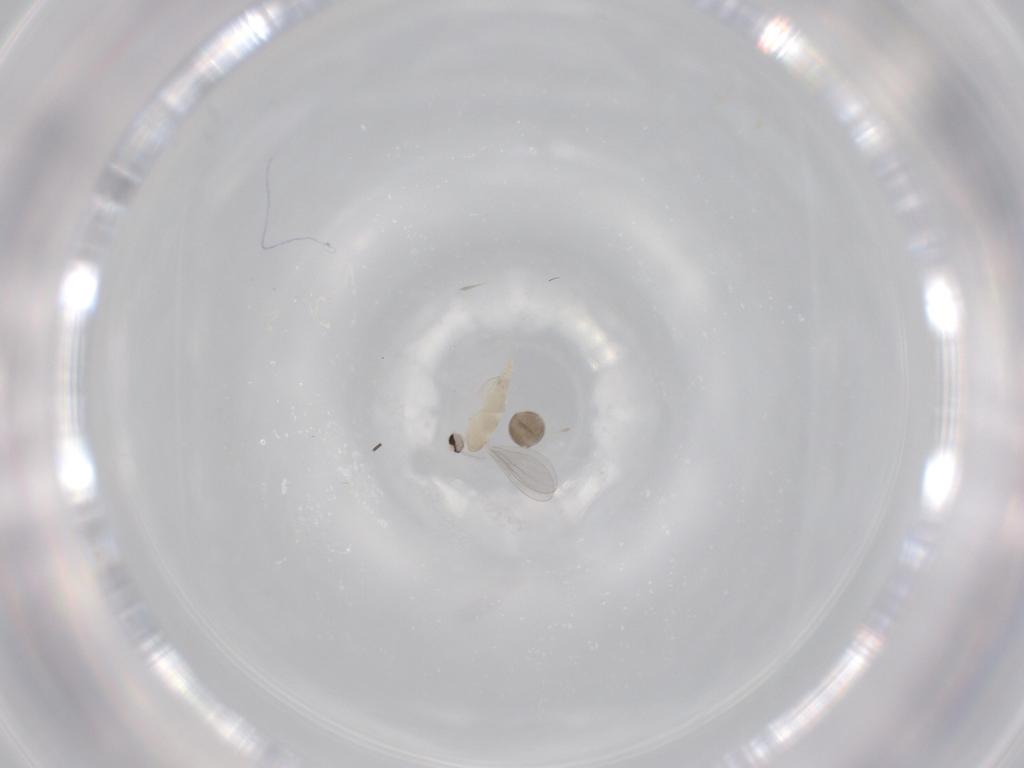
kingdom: Animalia
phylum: Arthropoda
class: Insecta
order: Diptera
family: Cecidomyiidae
